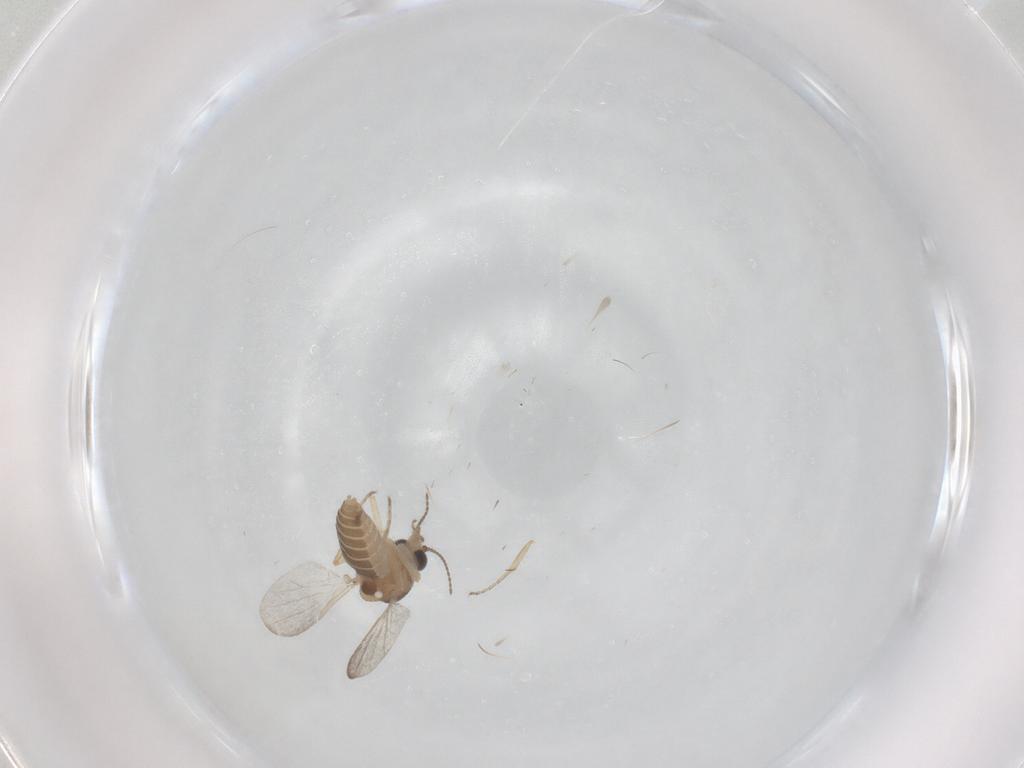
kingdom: Animalia
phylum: Arthropoda
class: Insecta
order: Diptera
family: Ceratopogonidae
